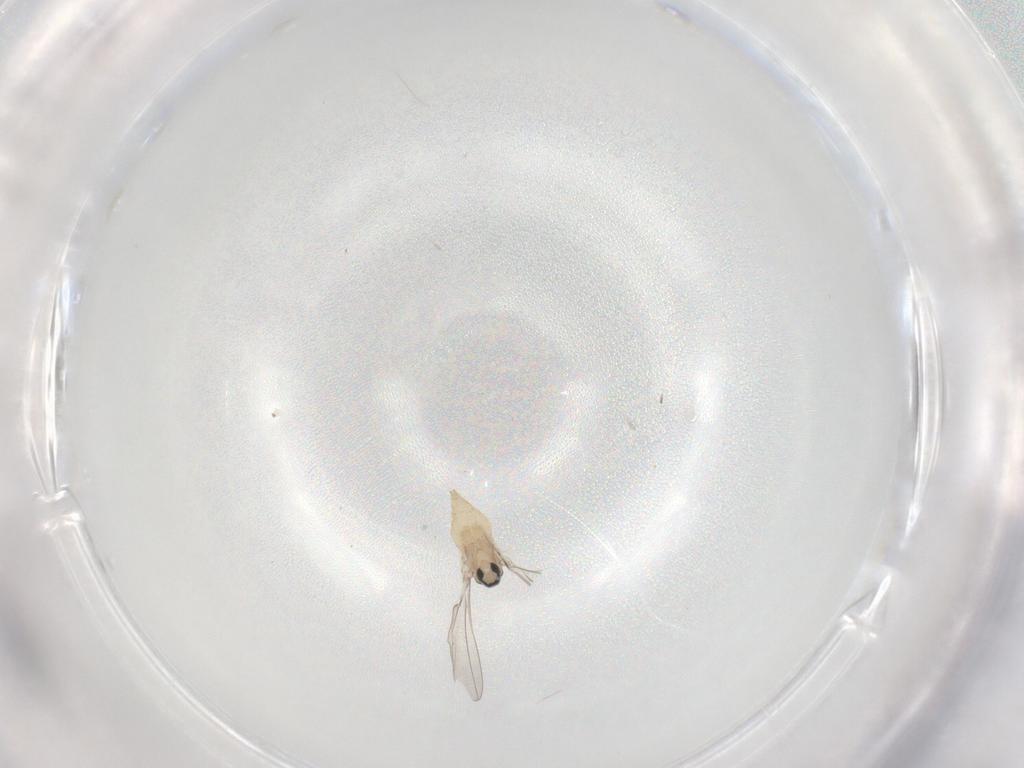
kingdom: Animalia
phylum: Arthropoda
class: Insecta
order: Diptera
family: Cecidomyiidae
